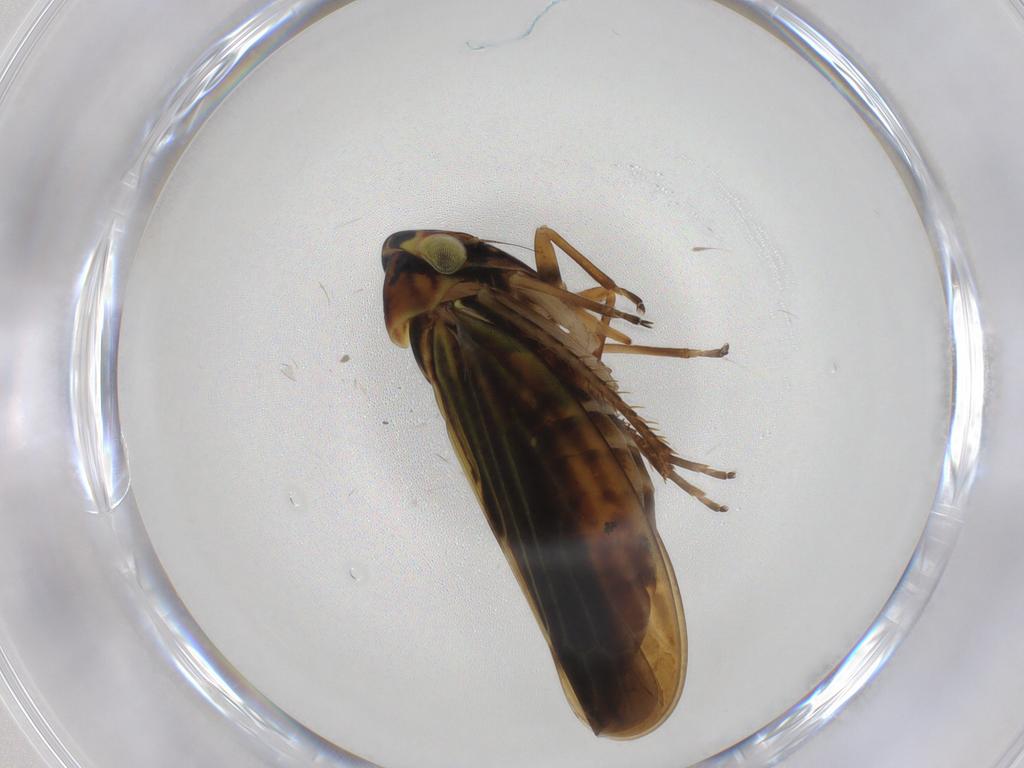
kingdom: Animalia
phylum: Arthropoda
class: Insecta
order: Hemiptera
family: Cicadellidae
